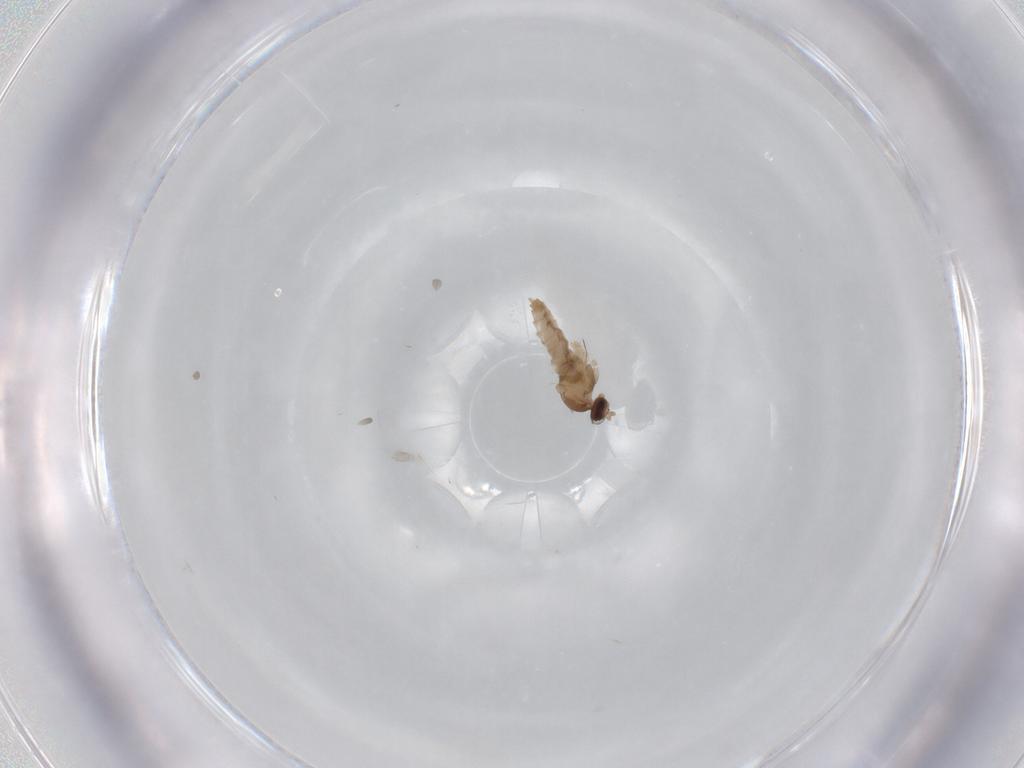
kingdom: Animalia
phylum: Arthropoda
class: Insecta
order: Diptera
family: Cecidomyiidae
